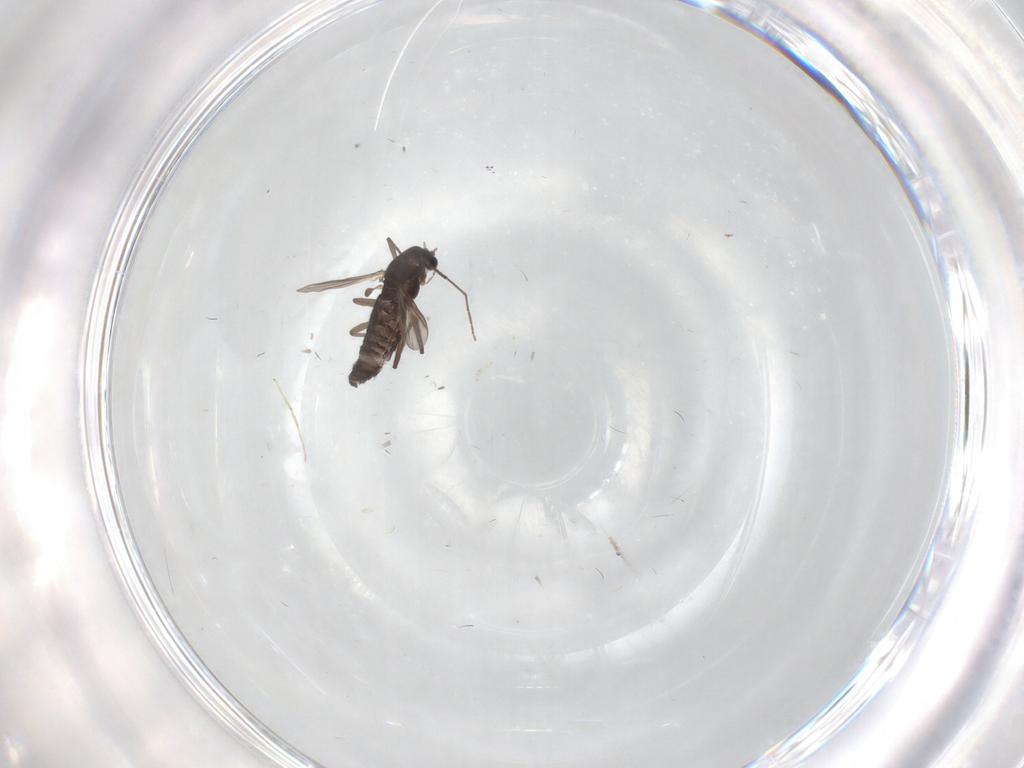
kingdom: Animalia
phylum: Arthropoda
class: Insecta
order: Diptera
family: Chironomidae
